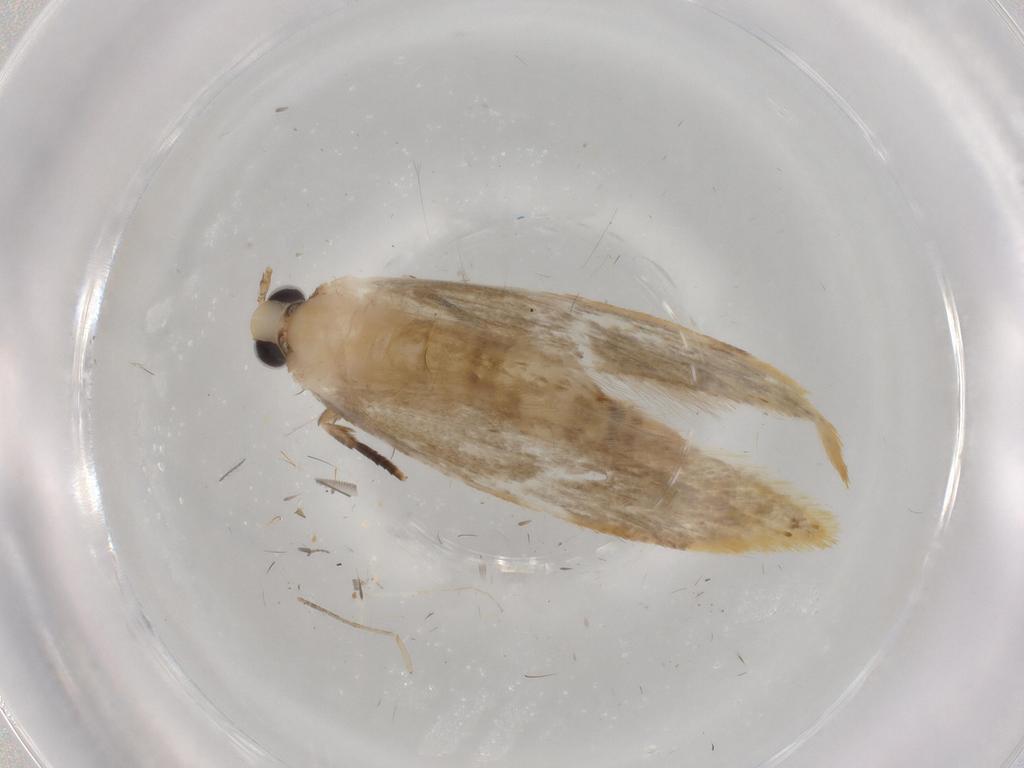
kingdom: Animalia
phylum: Arthropoda
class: Insecta
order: Lepidoptera
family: Tineidae
